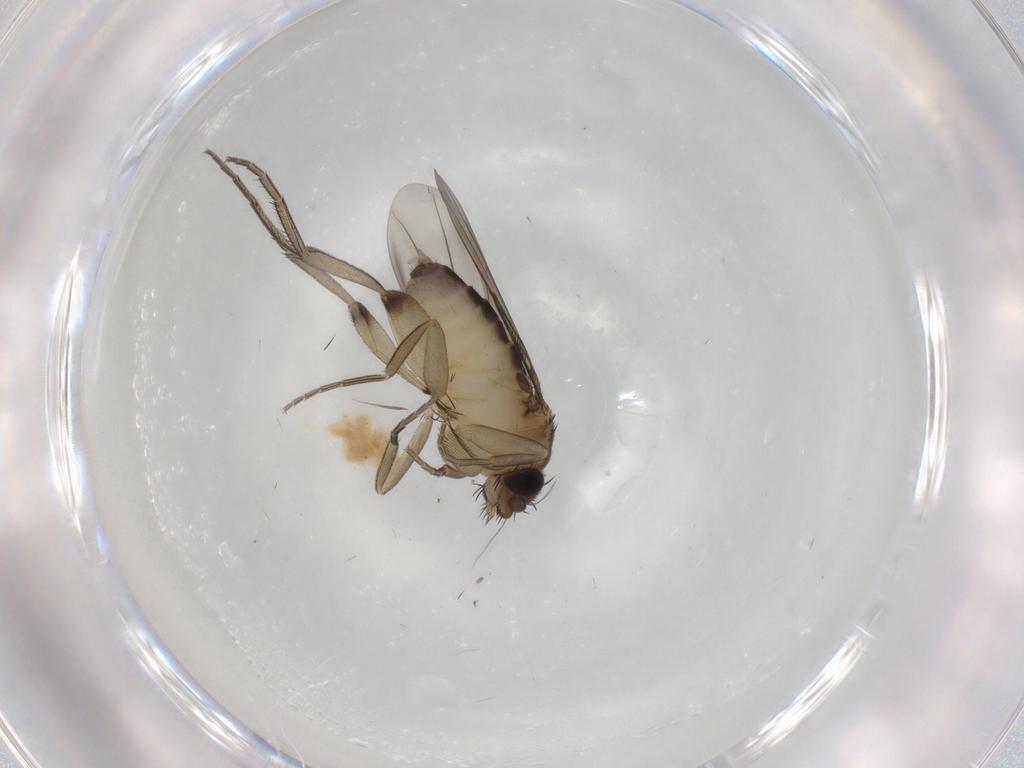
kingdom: Animalia
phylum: Arthropoda
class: Insecta
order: Diptera
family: Phoridae
